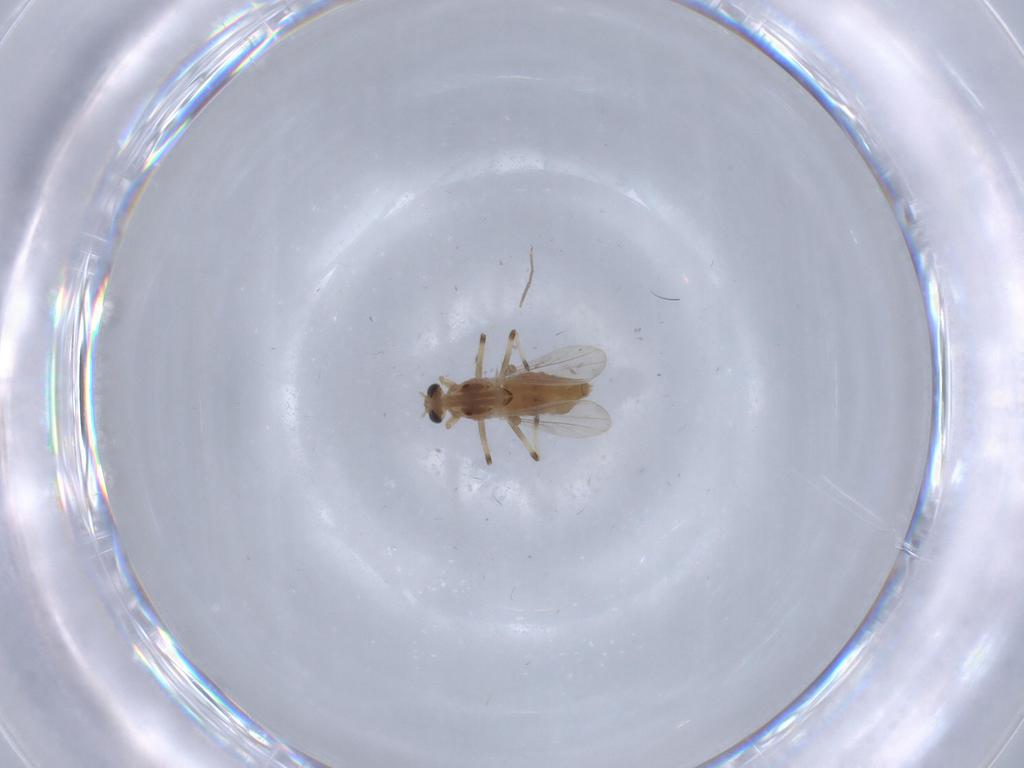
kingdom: Animalia
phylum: Arthropoda
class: Insecta
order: Diptera
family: Chironomidae
